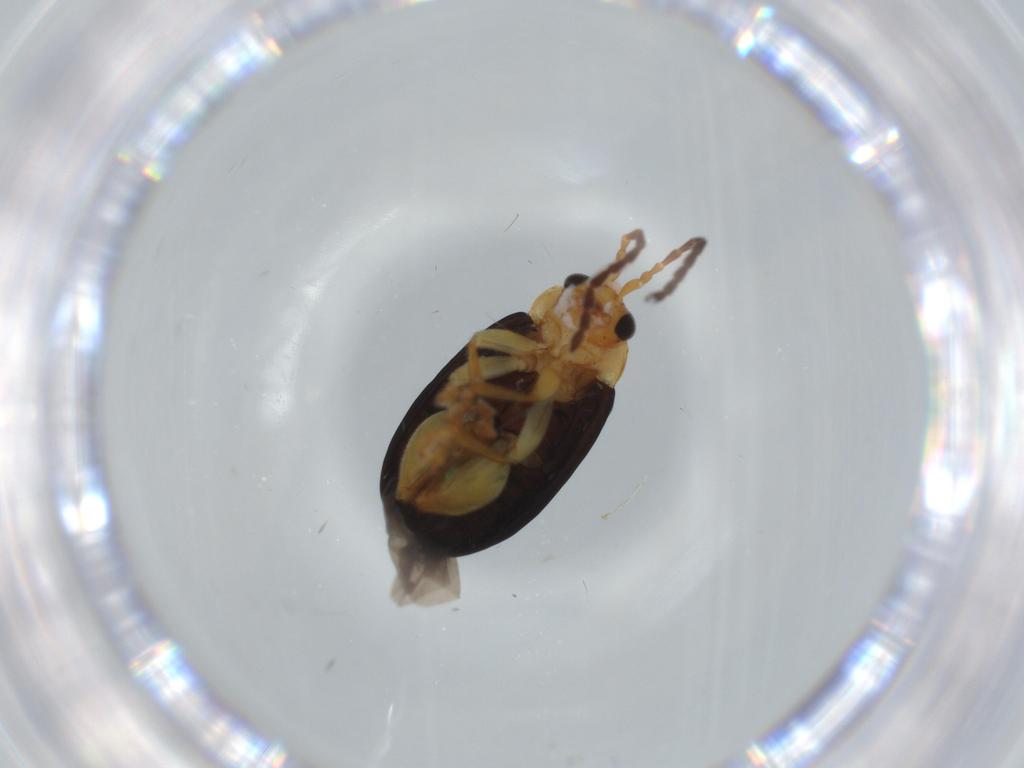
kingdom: Animalia
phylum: Arthropoda
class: Insecta
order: Coleoptera
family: Chrysomelidae
